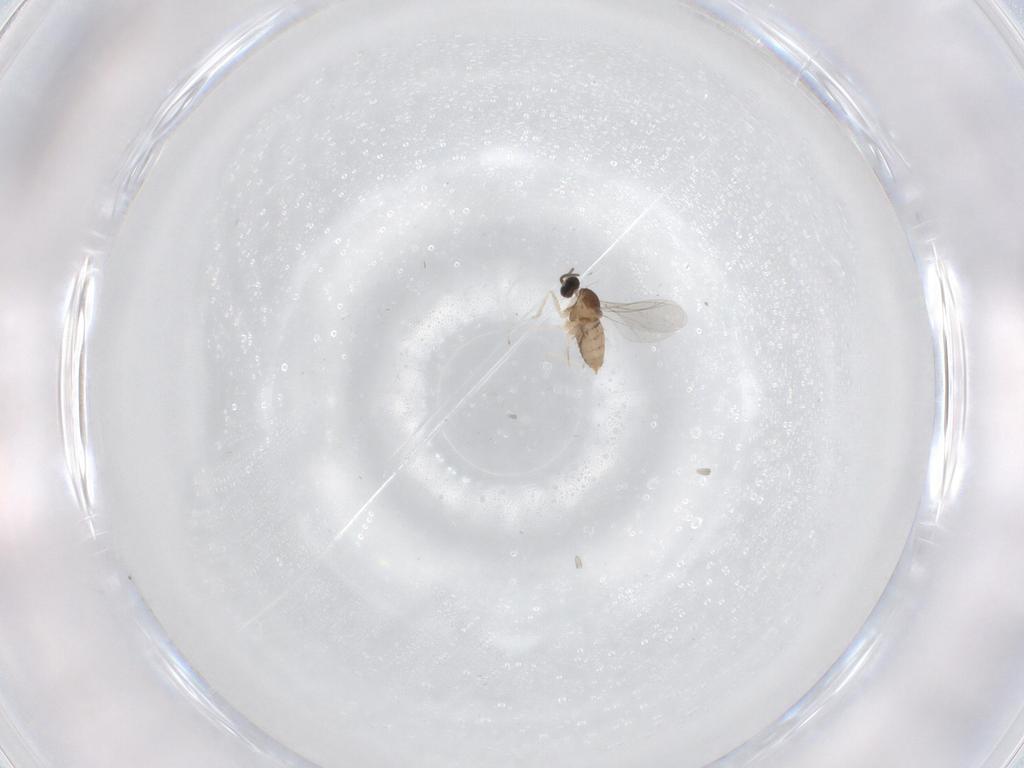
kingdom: Animalia
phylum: Arthropoda
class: Insecta
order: Diptera
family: Cecidomyiidae
